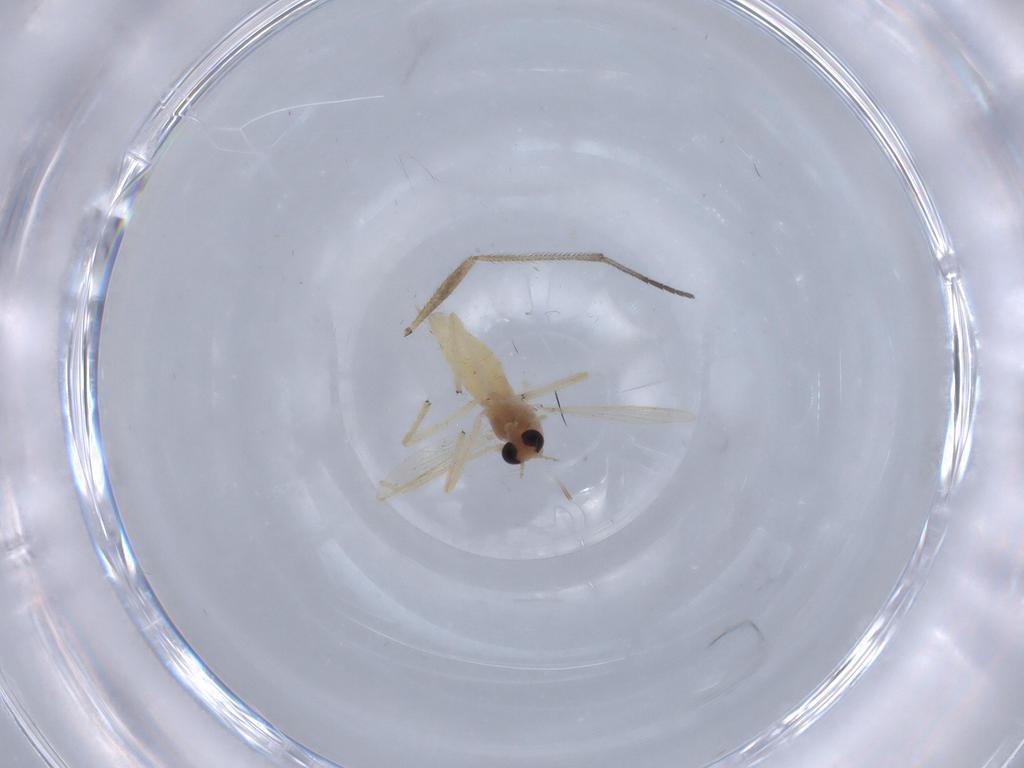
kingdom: Animalia
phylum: Arthropoda
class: Insecta
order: Diptera
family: Chironomidae
